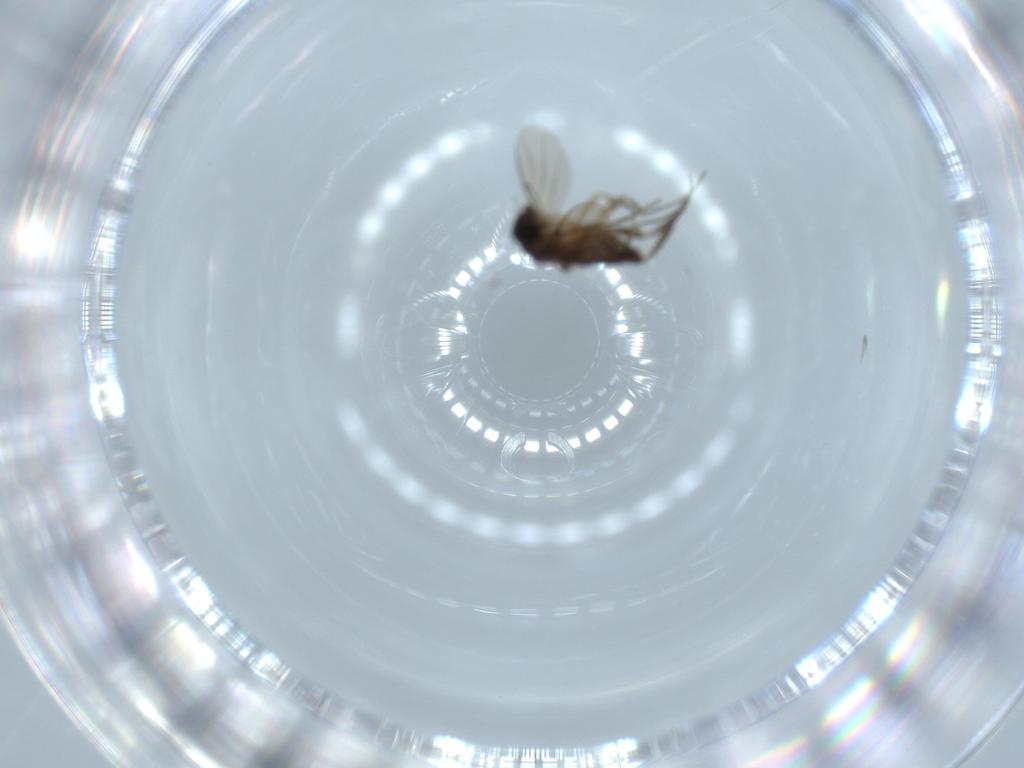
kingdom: Animalia
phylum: Arthropoda
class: Insecta
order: Diptera
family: Phoridae
